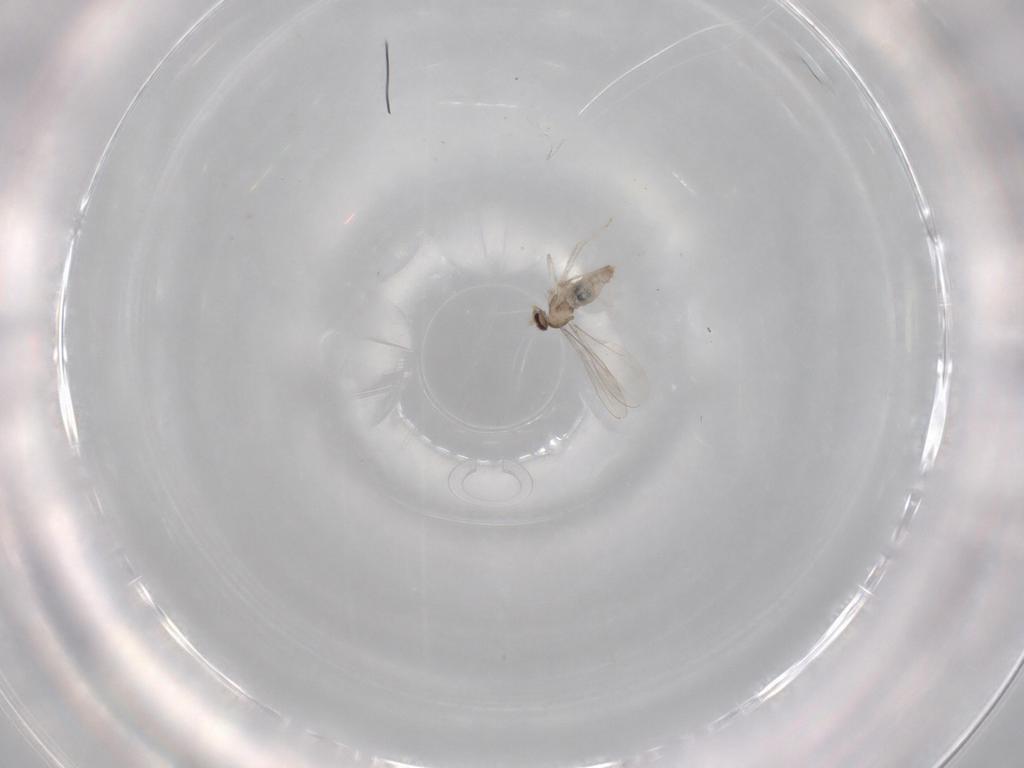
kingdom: Animalia
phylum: Arthropoda
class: Insecta
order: Diptera
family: Cecidomyiidae
